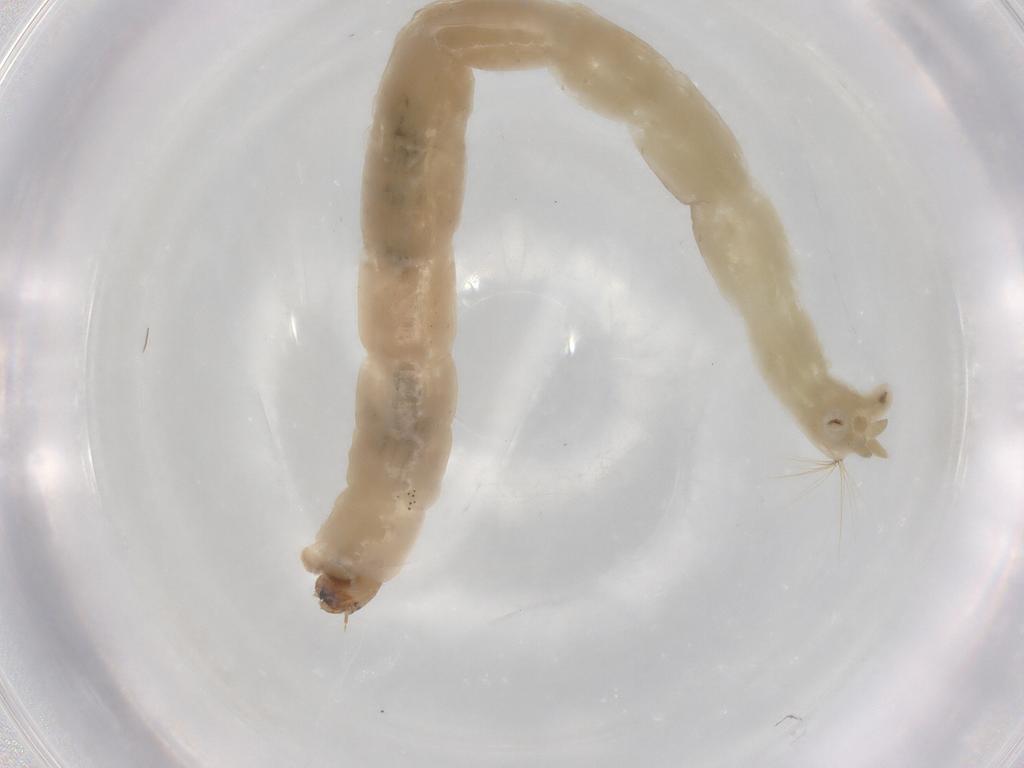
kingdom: Animalia
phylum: Arthropoda
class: Insecta
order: Diptera
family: Chironomidae
